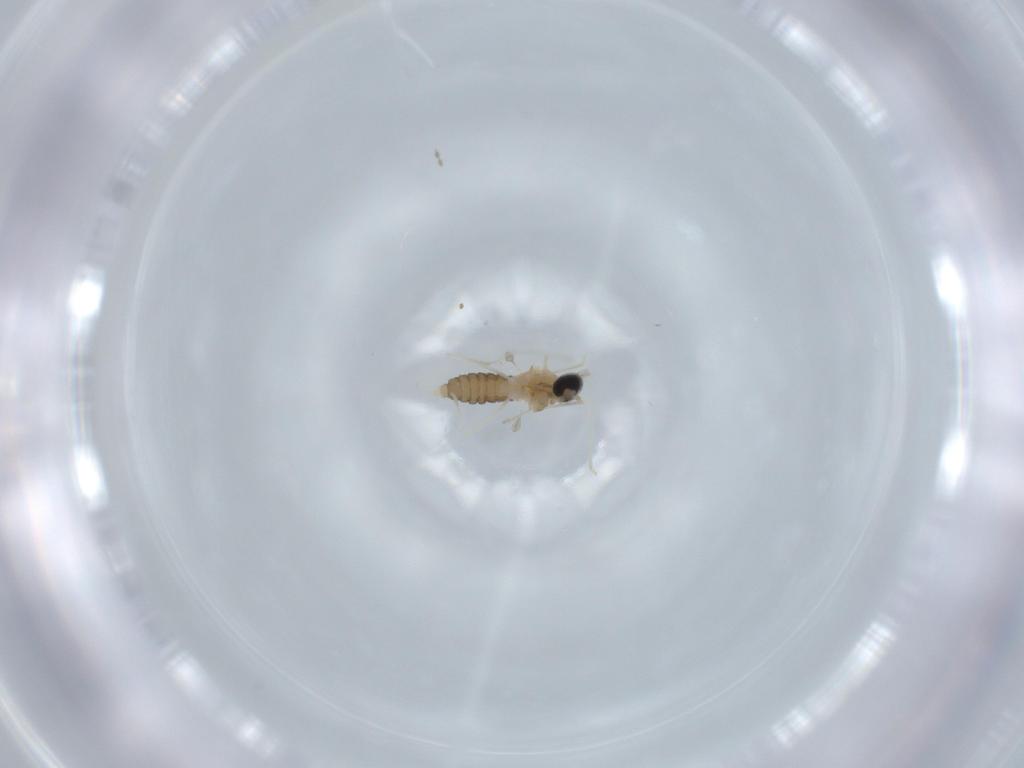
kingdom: Animalia
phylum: Arthropoda
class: Insecta
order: Diptera
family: Cecidomyiidae
